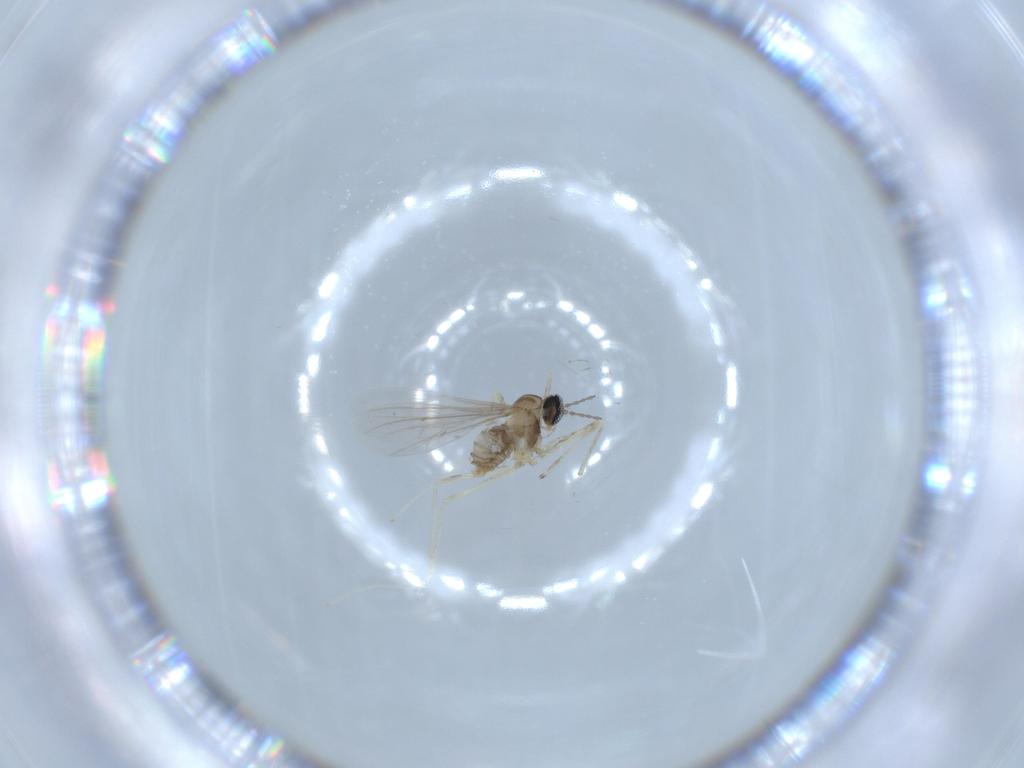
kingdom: Animalia
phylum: Arthropoda
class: Insecta
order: Diptera
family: Cecidomyiidae
